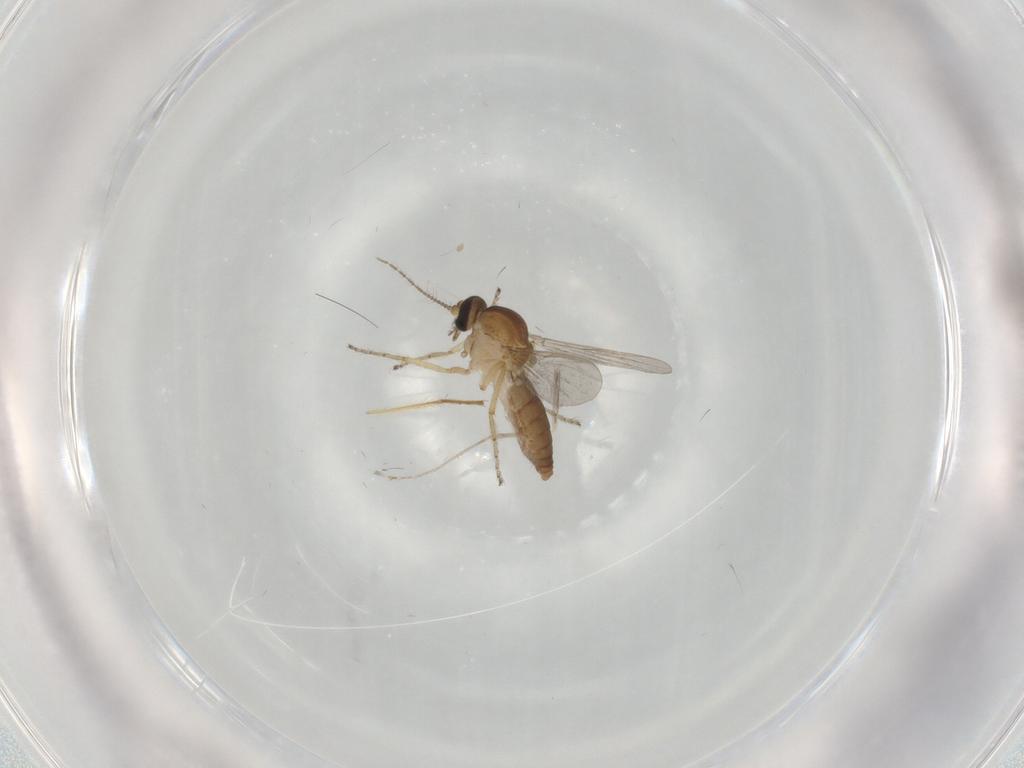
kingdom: Animalia
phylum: Arthropoda
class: Insecta
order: Diptera
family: Ceratopogonidae
